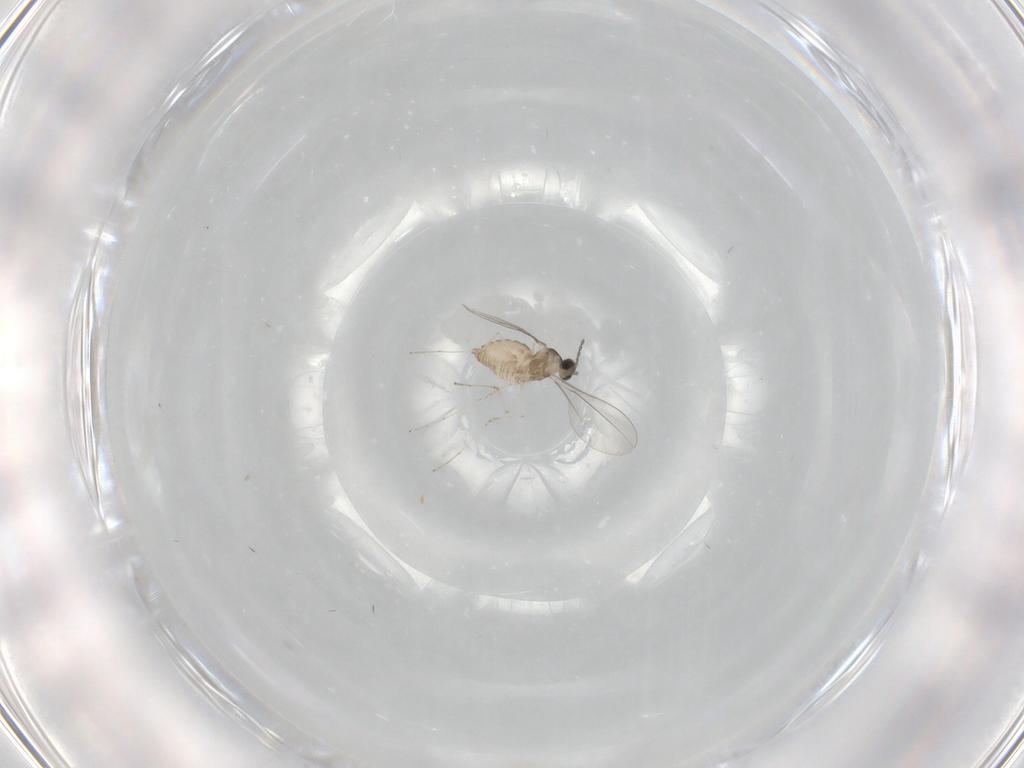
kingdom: Animalia
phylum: Arthropoda
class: Insecta
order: Diptera
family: Cecidomyiidae
